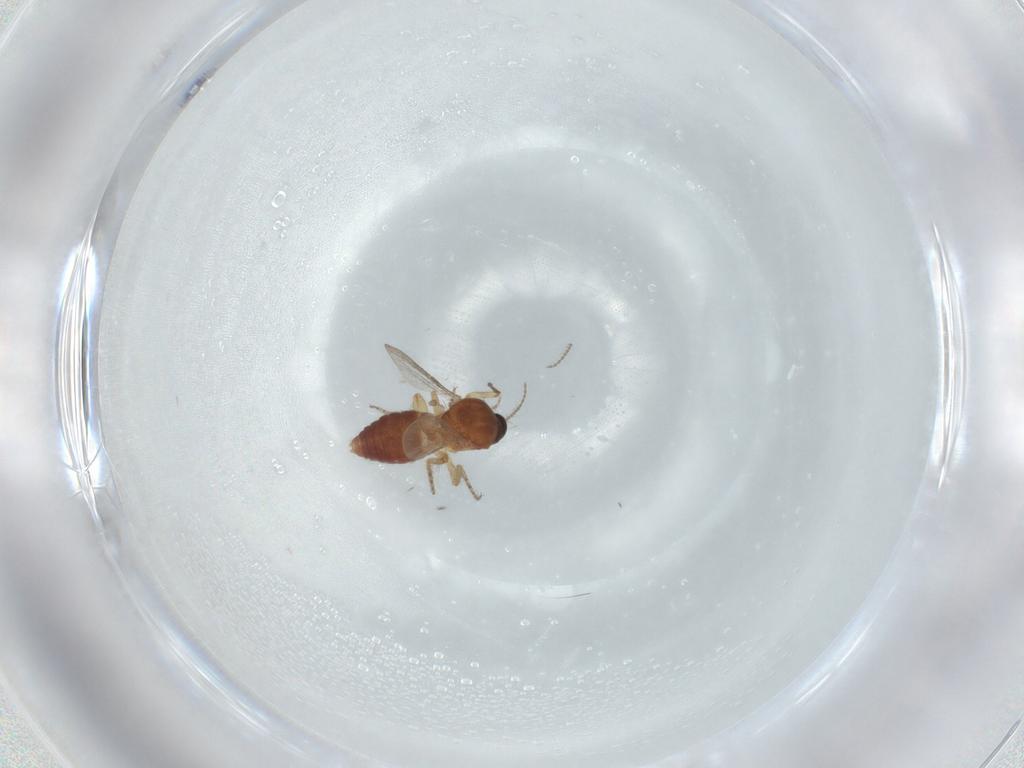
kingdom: Animalia
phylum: Arthropoda
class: Insecta
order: Diptera
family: Ceratopogonidae
